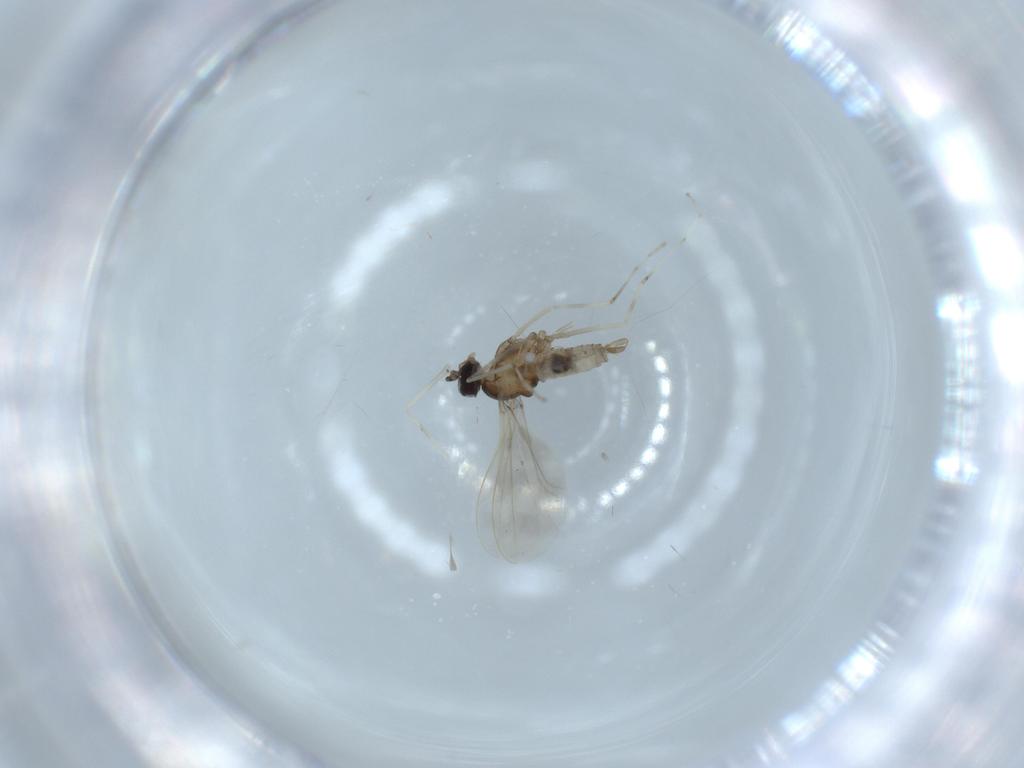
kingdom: Animalia
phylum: Arthropoda
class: Insecta
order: Diptera
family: Cecidomyiidae
